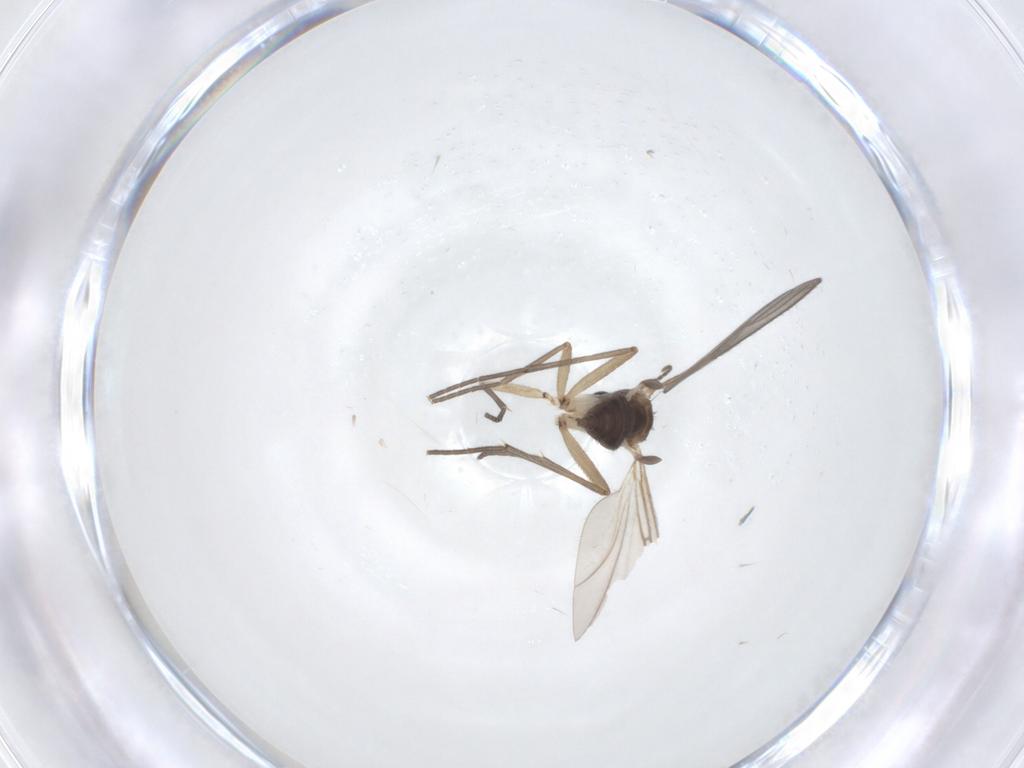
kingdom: Animalia
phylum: Arthropoda
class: Insecta
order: Diptera
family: Sciaridae
